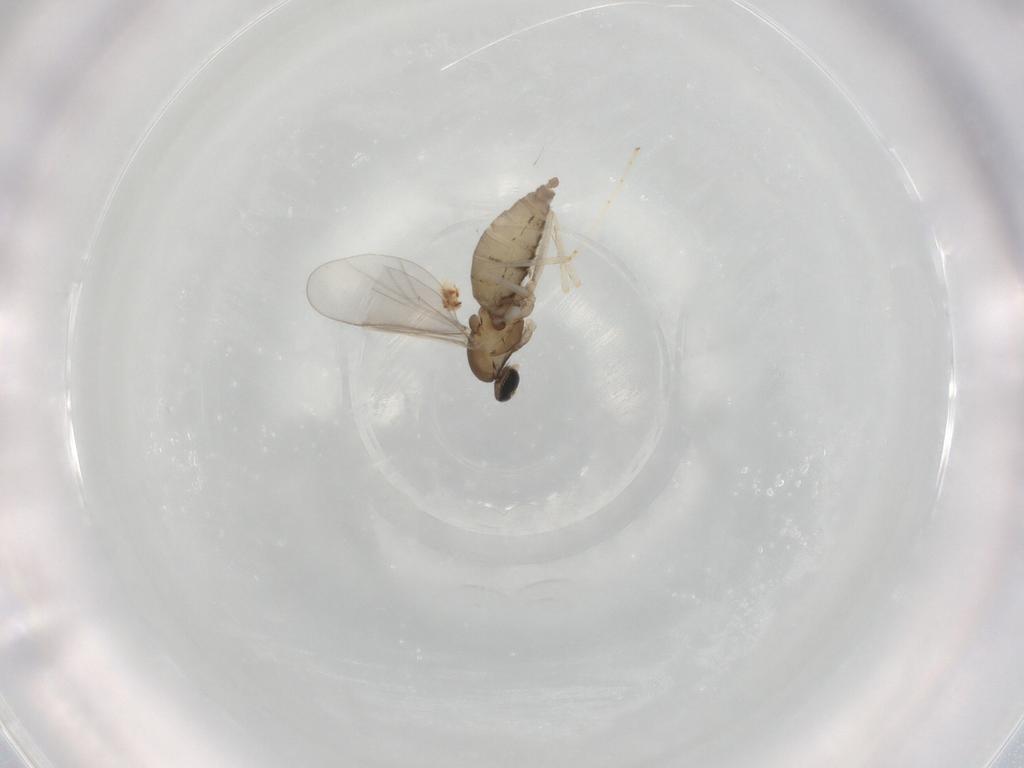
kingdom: Animalia
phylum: Arthropoda
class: Insecta
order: Diptera
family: Cecidomyiidae
